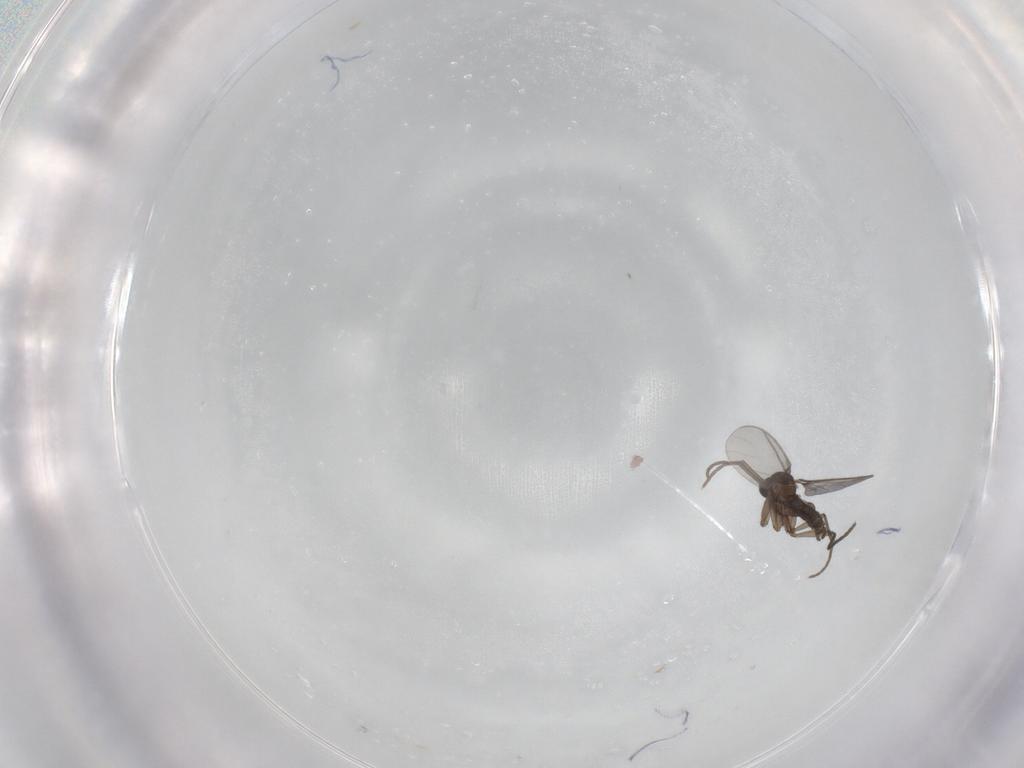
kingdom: Animalia
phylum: Arthropoda
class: Insecta
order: Diptera
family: Sciaridae
